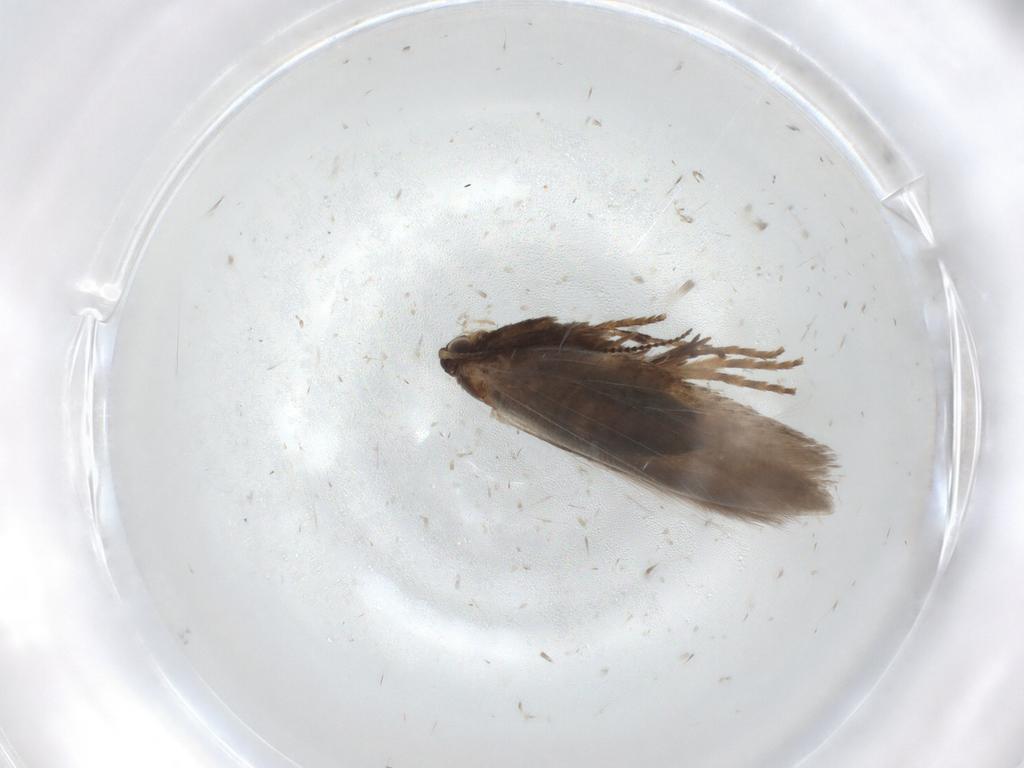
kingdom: Animalia
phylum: Arthropoda
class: Insecta
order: Lepidoptera
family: Nepticulidae
